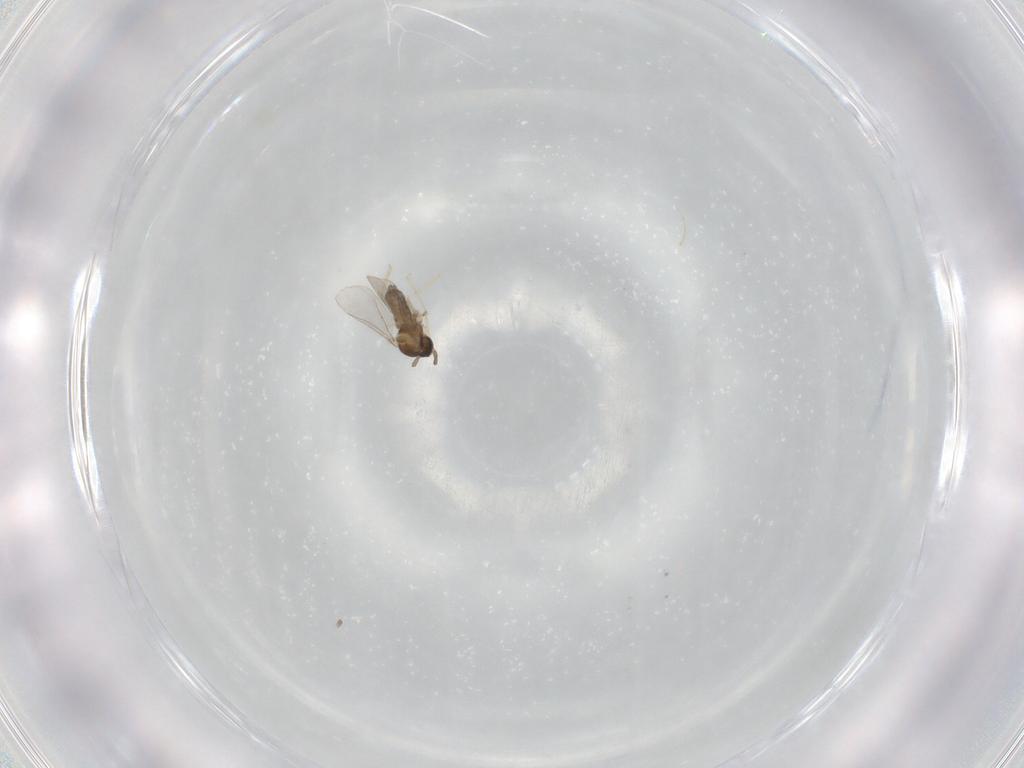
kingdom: Animalia
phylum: Arthropoda
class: Insecta
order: Diptera
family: Cecidomyiidae
